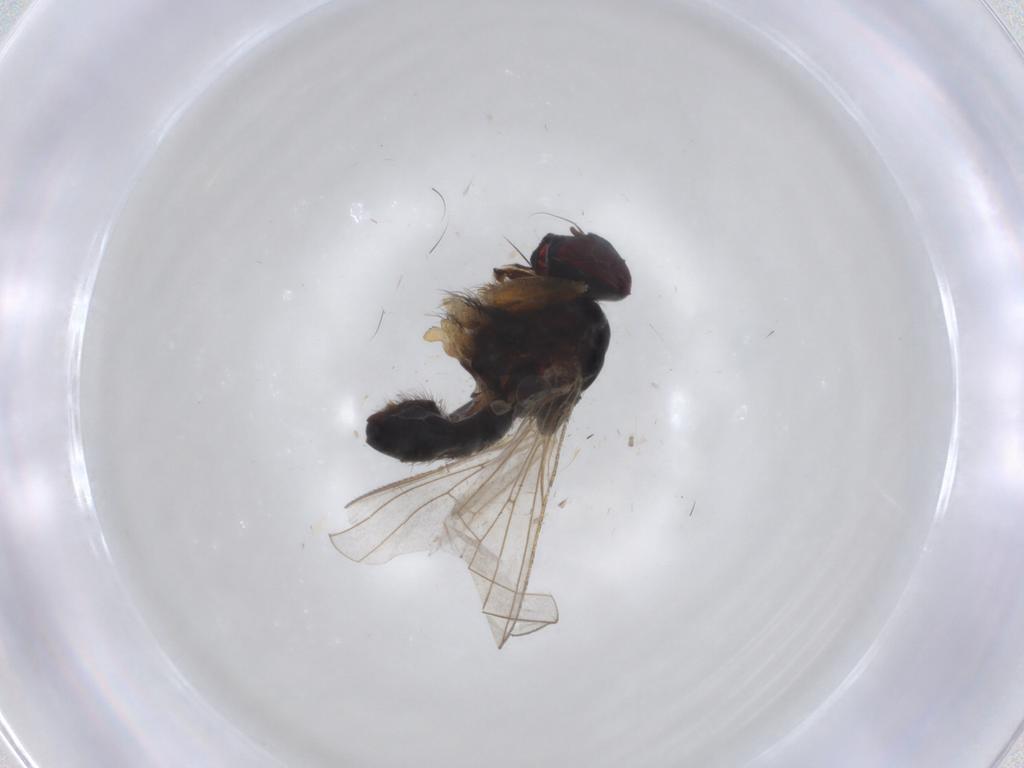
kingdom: Animalia
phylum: Arthropoda
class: Insecta
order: Diptera
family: Muscidae
